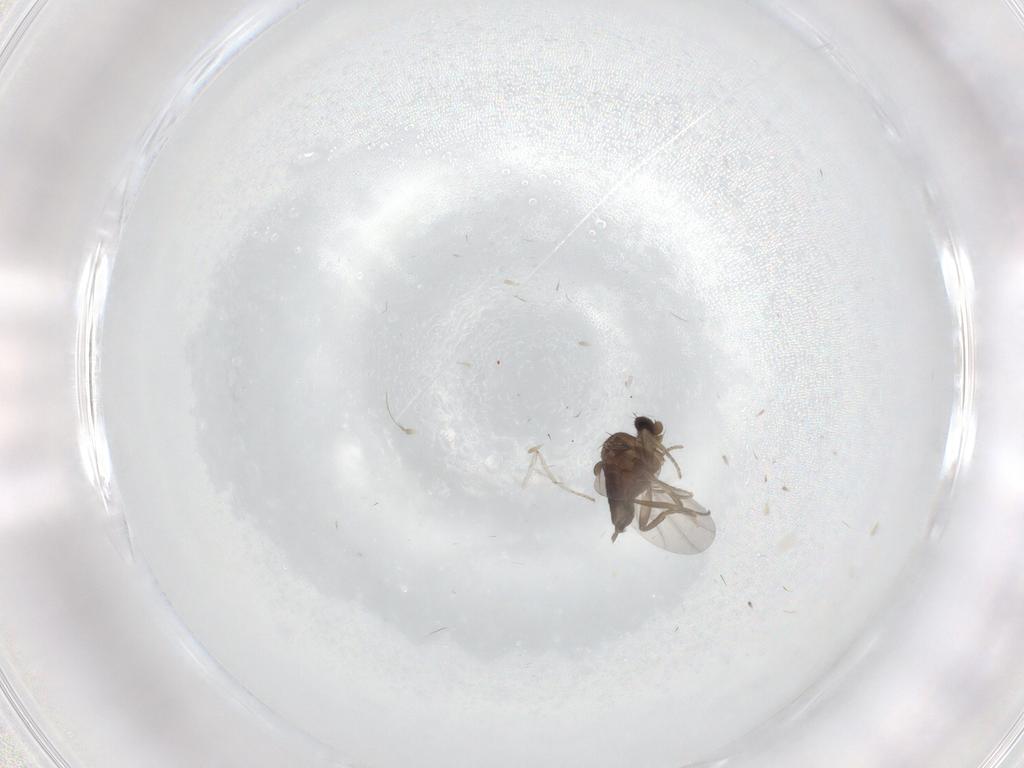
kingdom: Animalia
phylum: Arthropoda
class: Insecta
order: Diptera
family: Phoridae
